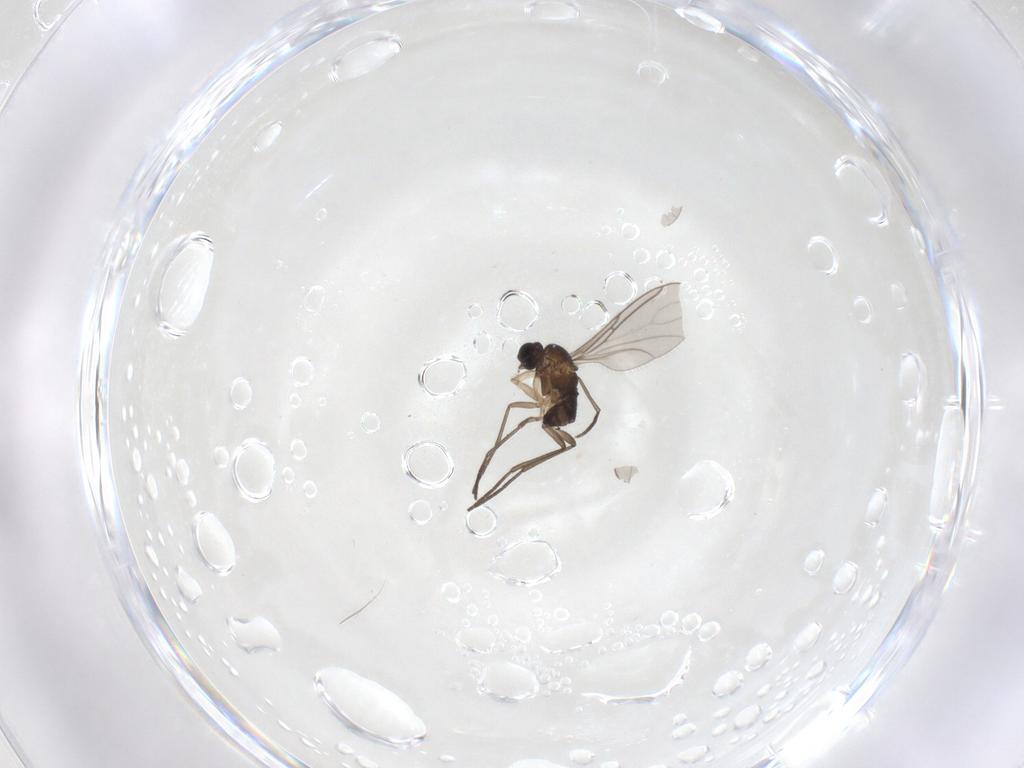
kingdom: Animalia
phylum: Arthropoda
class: Insecta
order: Diptera
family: Sciaridae
